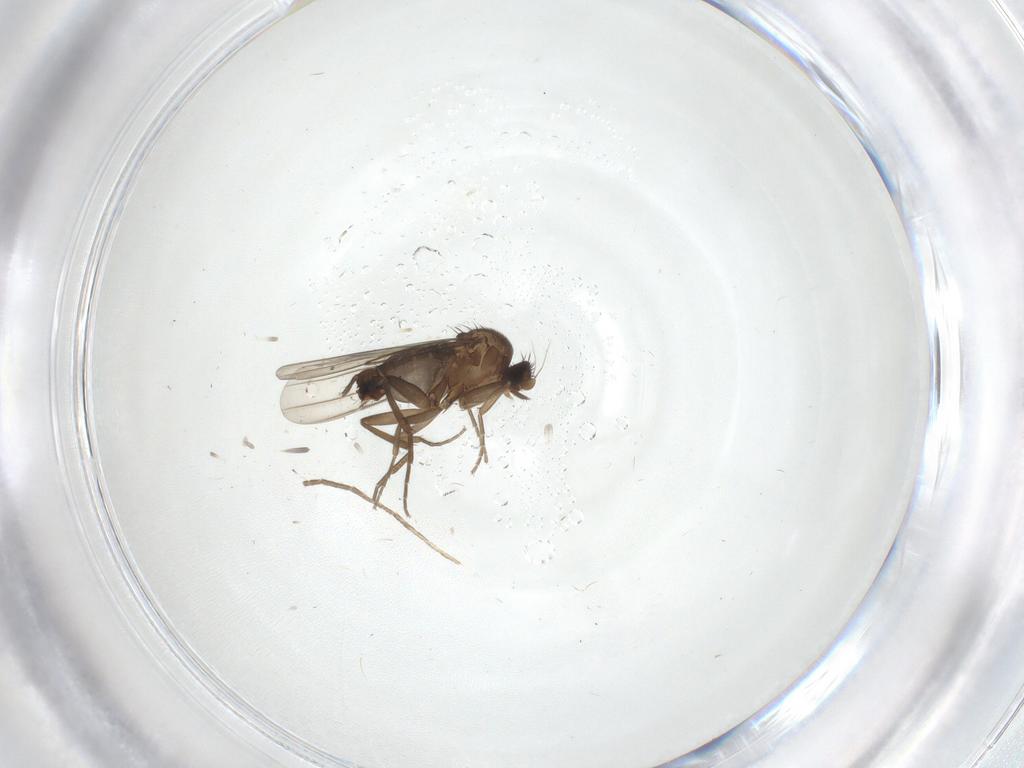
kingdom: Animalia
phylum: Arthropoda
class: Insecta
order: Diptera
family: Cecidomyiidae
